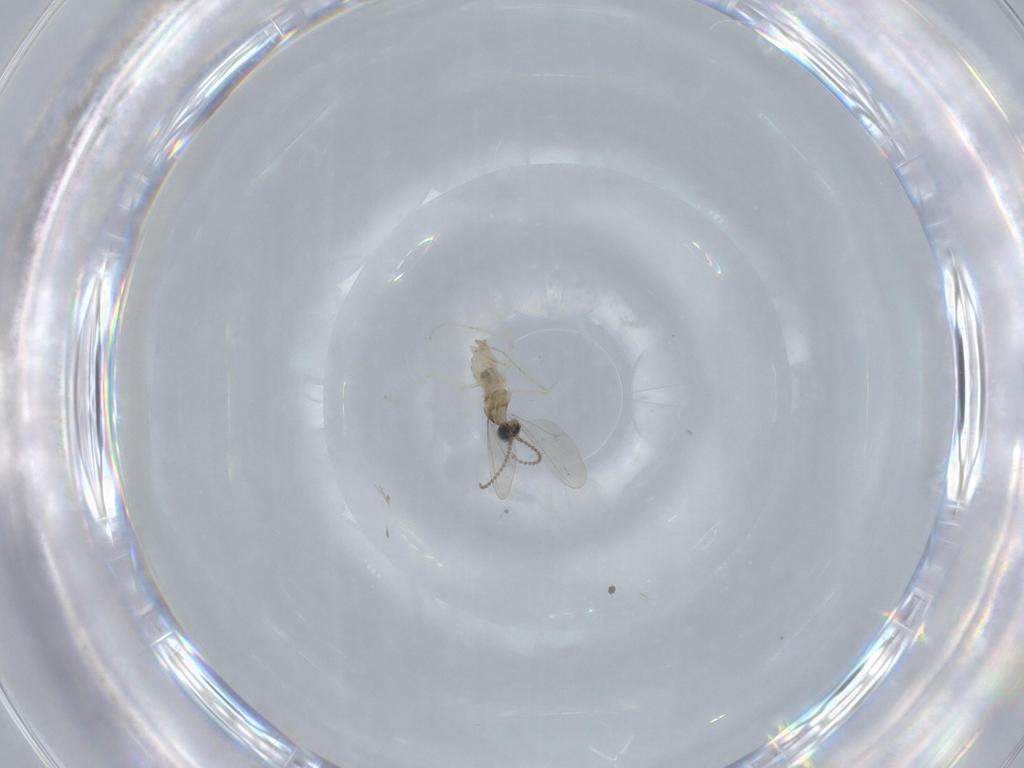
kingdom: Animalia
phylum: Arthropoda
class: Insecta
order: Diptera
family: Cecidomyiidae
